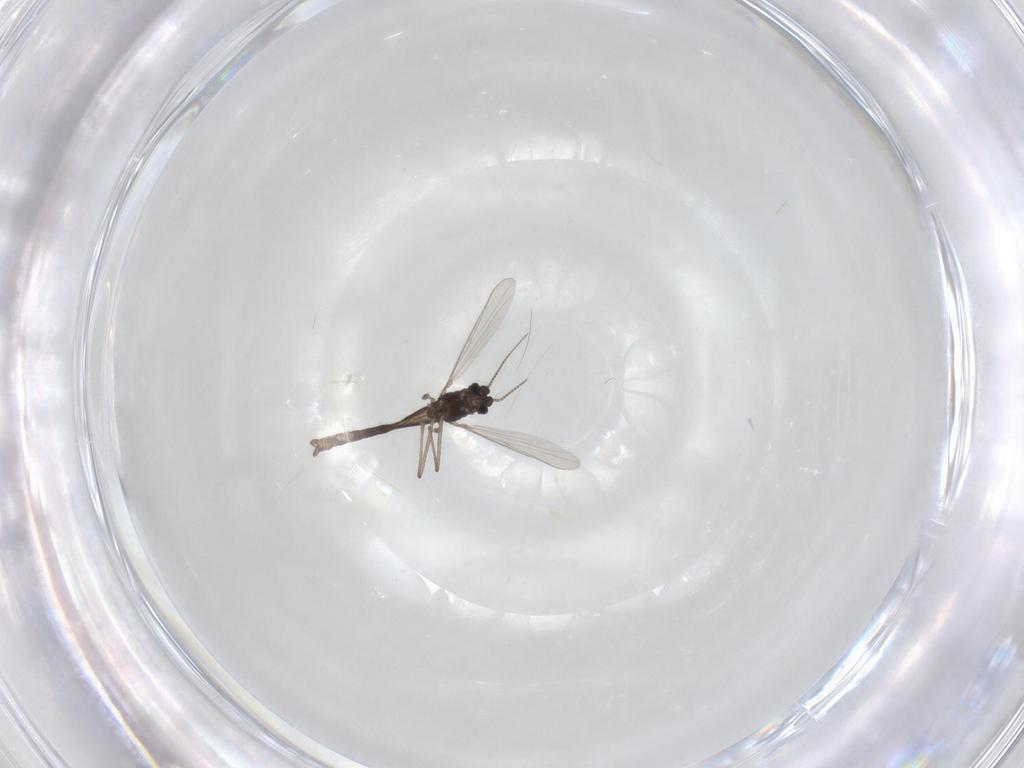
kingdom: Animalia
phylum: Arthropoda
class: Insecta
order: Diptera
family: Chironomidae
